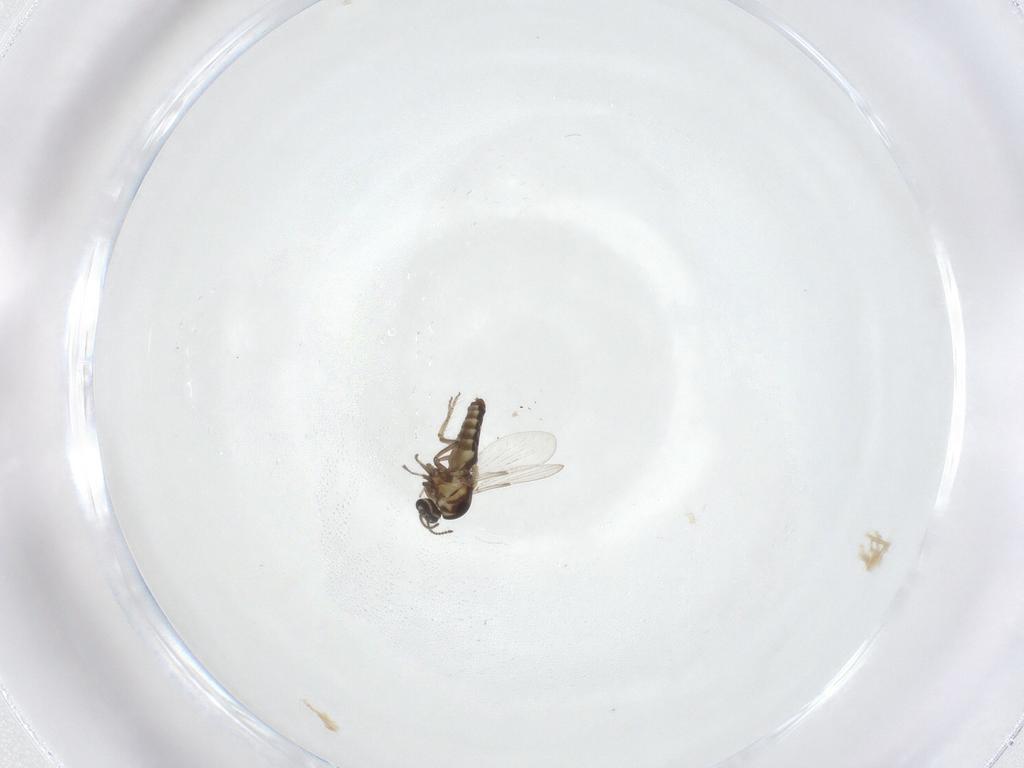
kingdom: Animalia
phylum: Arthropoda
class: Insecta
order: Diptera
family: Ceratopogonidae
